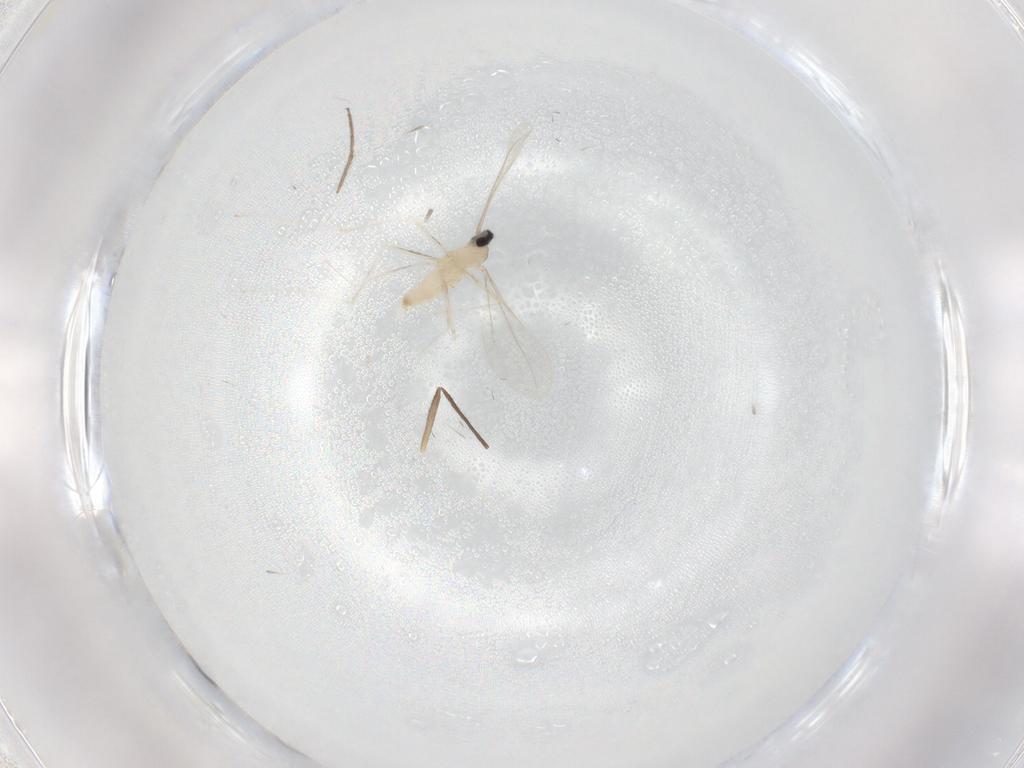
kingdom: Animalia
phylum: Arthropoda
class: Insecta
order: Diptera
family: Chironomidae
